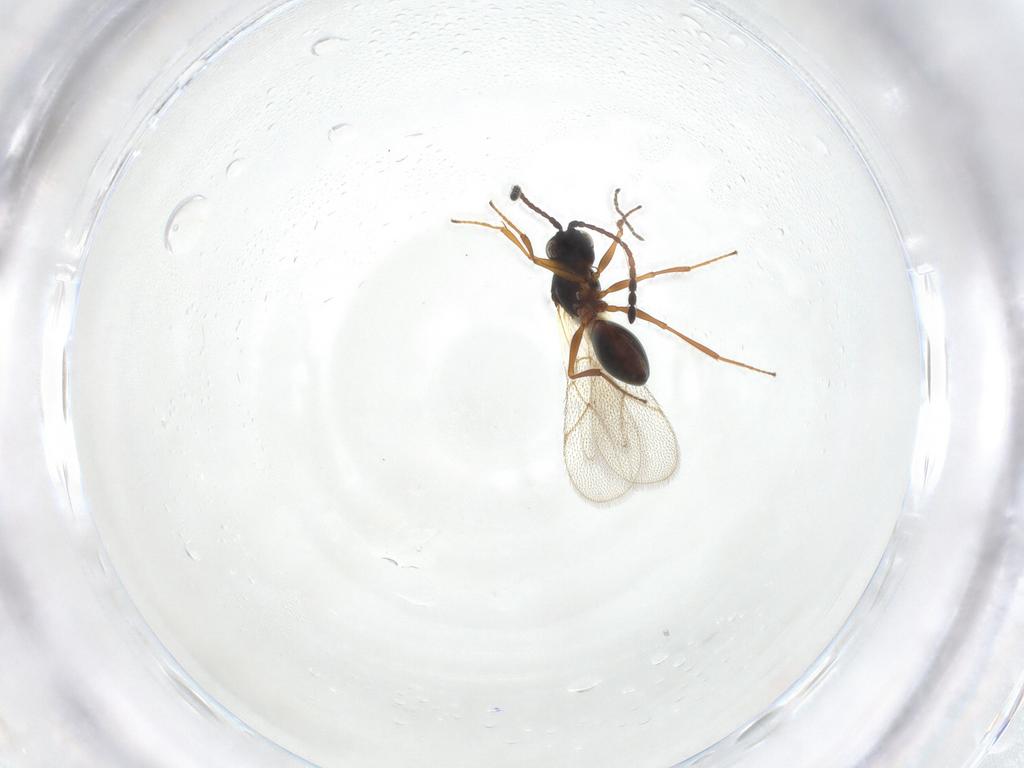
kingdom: Animalia
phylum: Arthropoda
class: Insecta
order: Hymenoptera
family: Figitidae
